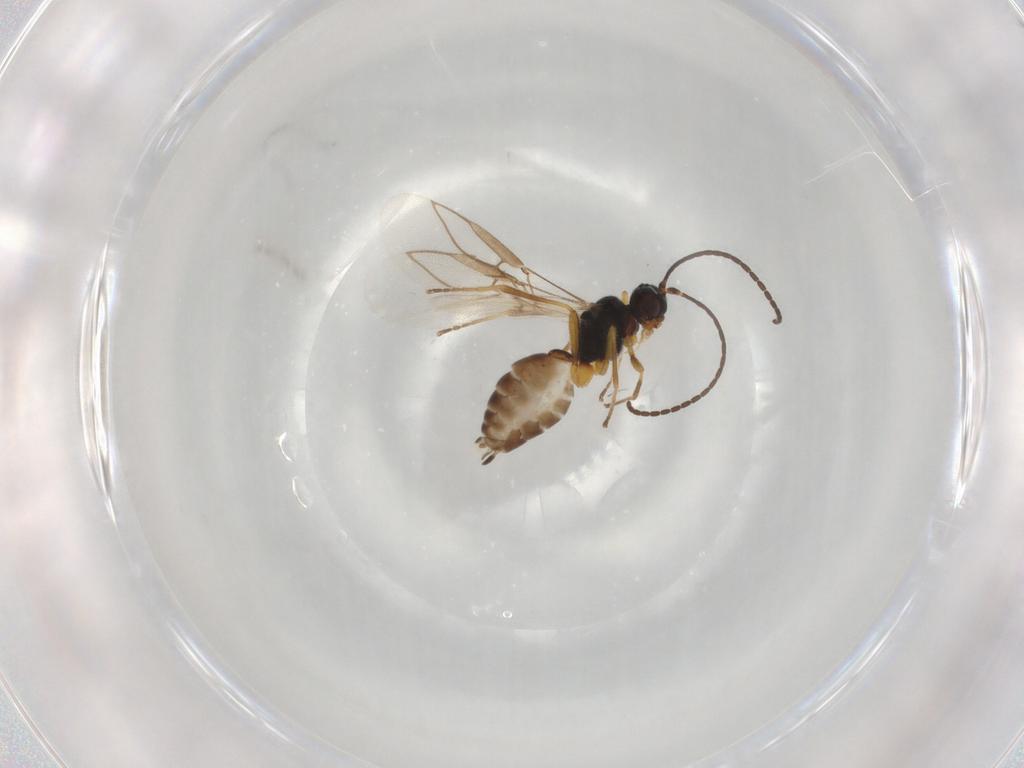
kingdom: Animalia
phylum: Arthropoda
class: Insecta
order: Hymenoptera
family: Braconidae
